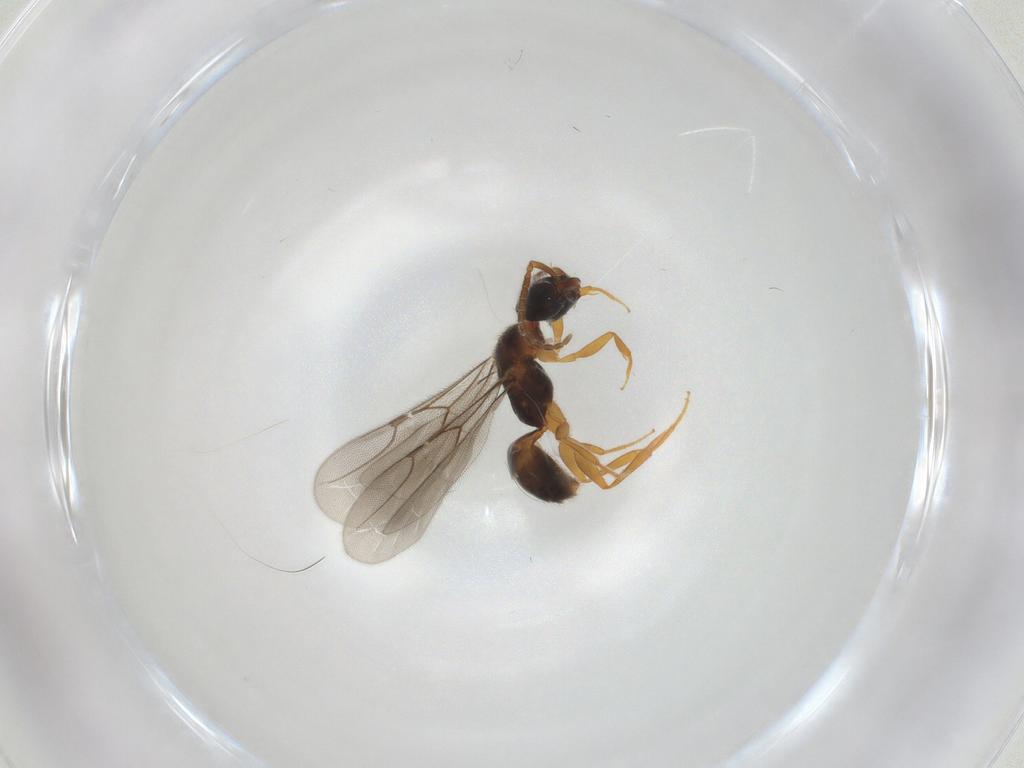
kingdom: Animalia
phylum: Arthropoda
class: Insecta
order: Hymenoptera
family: Bethylidae
